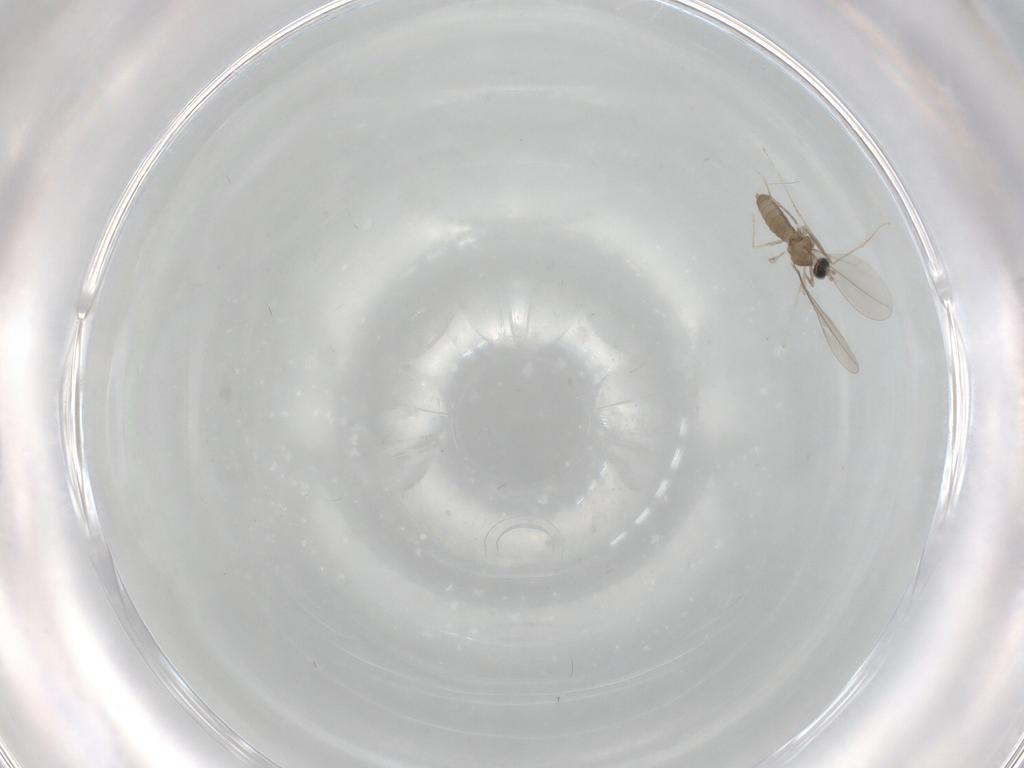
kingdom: Animalia
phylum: Arthropoda
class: Insecta
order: Diptera
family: Cecidomyiidae
